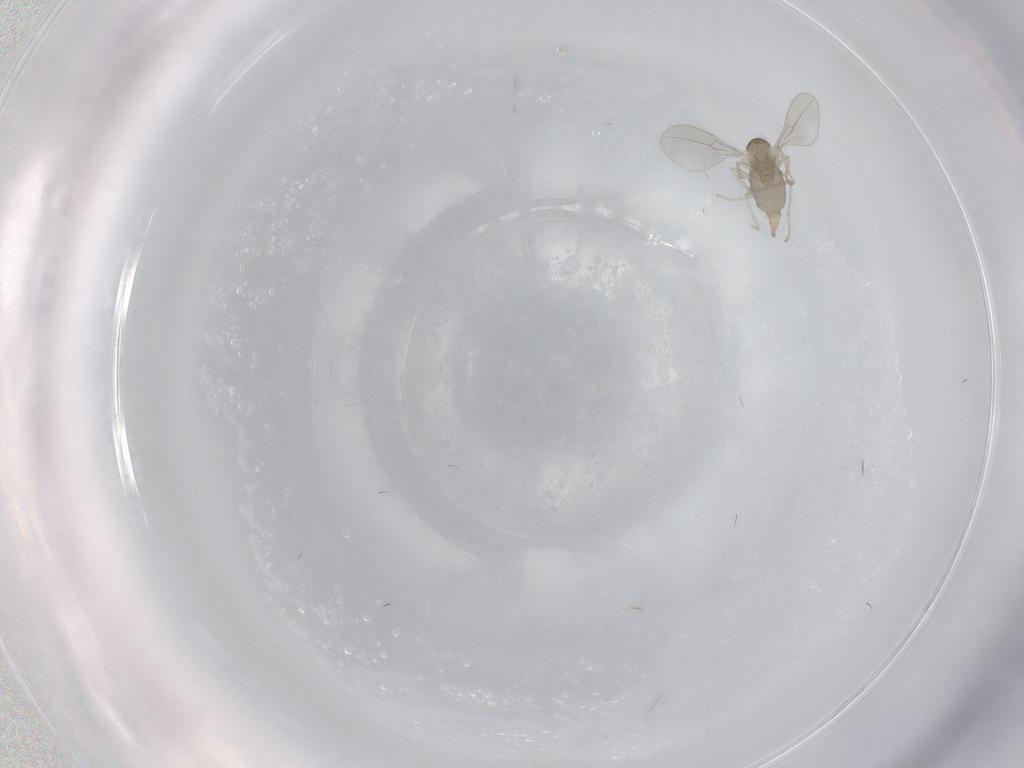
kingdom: Animalia
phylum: Arthropoda
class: Insecta
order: Diptera
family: Cecidomyiidae
